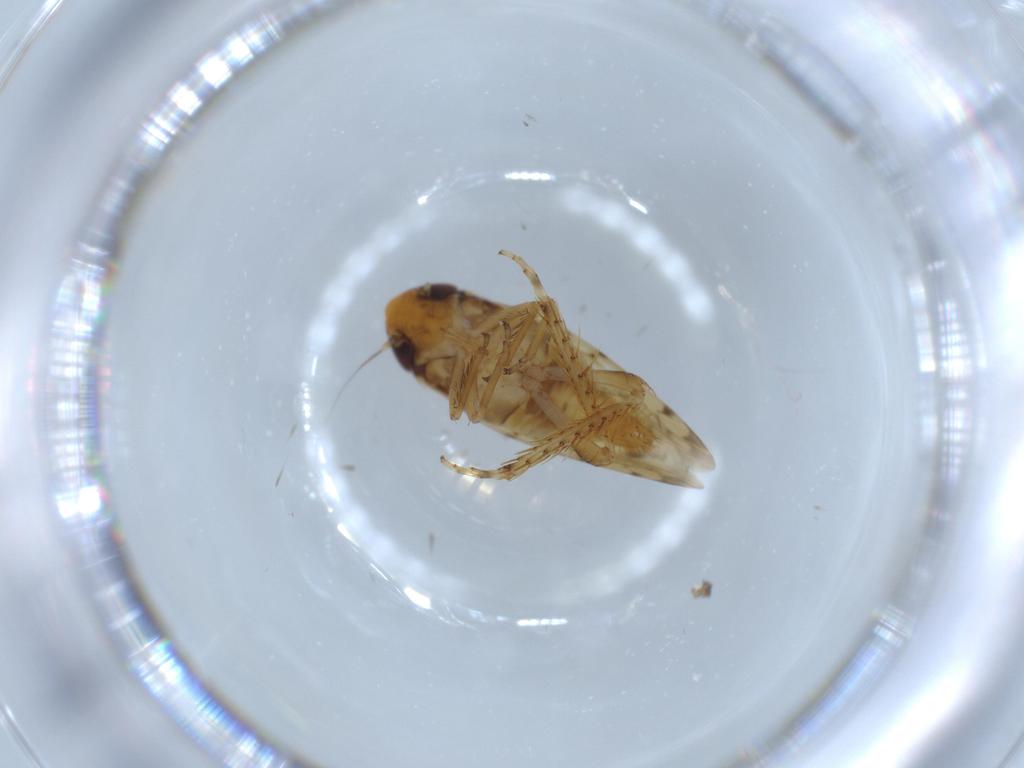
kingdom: Animalia
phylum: Arthropoda
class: Insecta
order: Hemiptera
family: Cicadellidae
